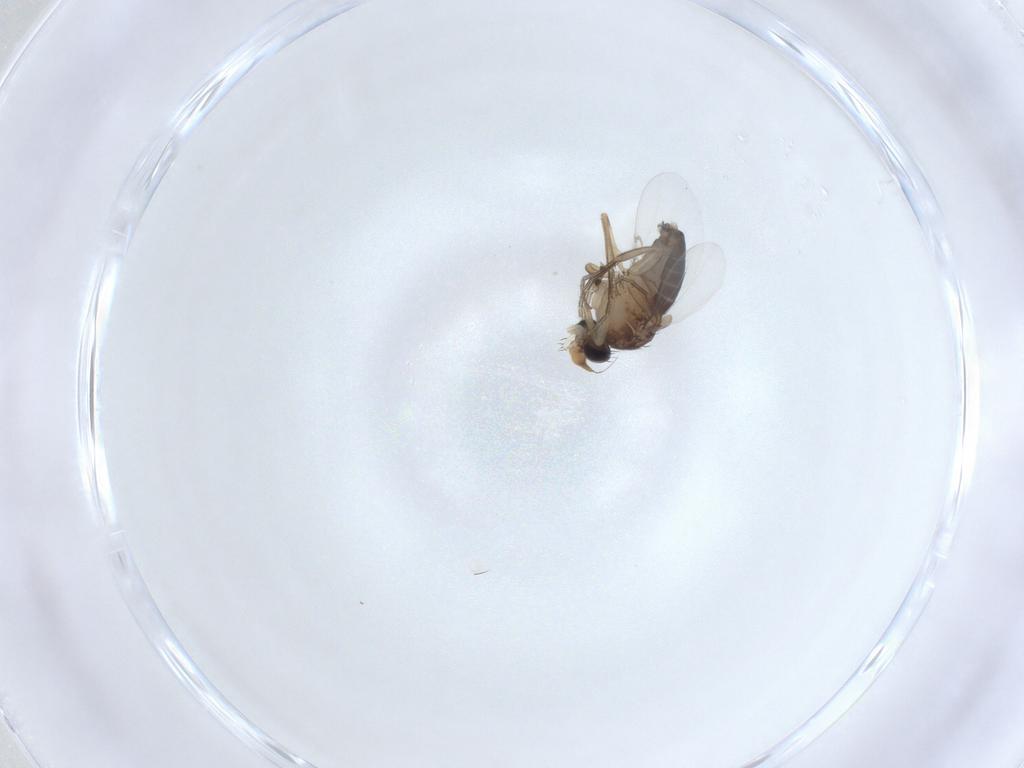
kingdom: Animalia
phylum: Arthropoda
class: Insecta
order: Diptera
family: Phoridae
